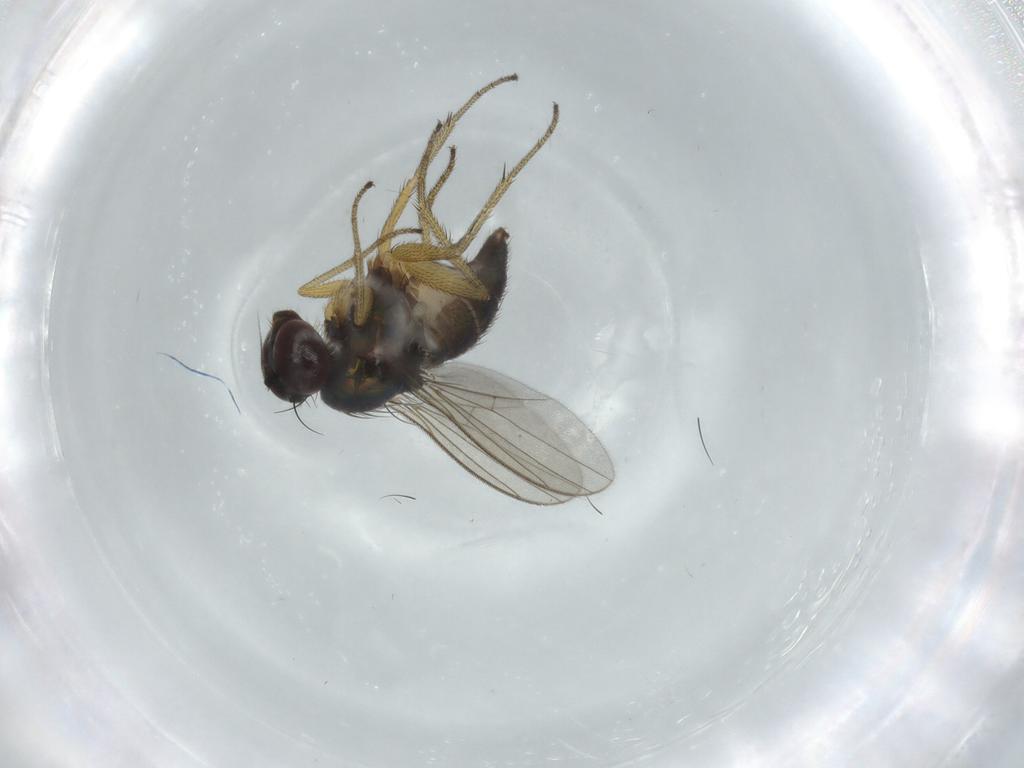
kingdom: Animalia
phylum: Arthropoda
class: Insecta
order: Diptera
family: Dolichopodidae
